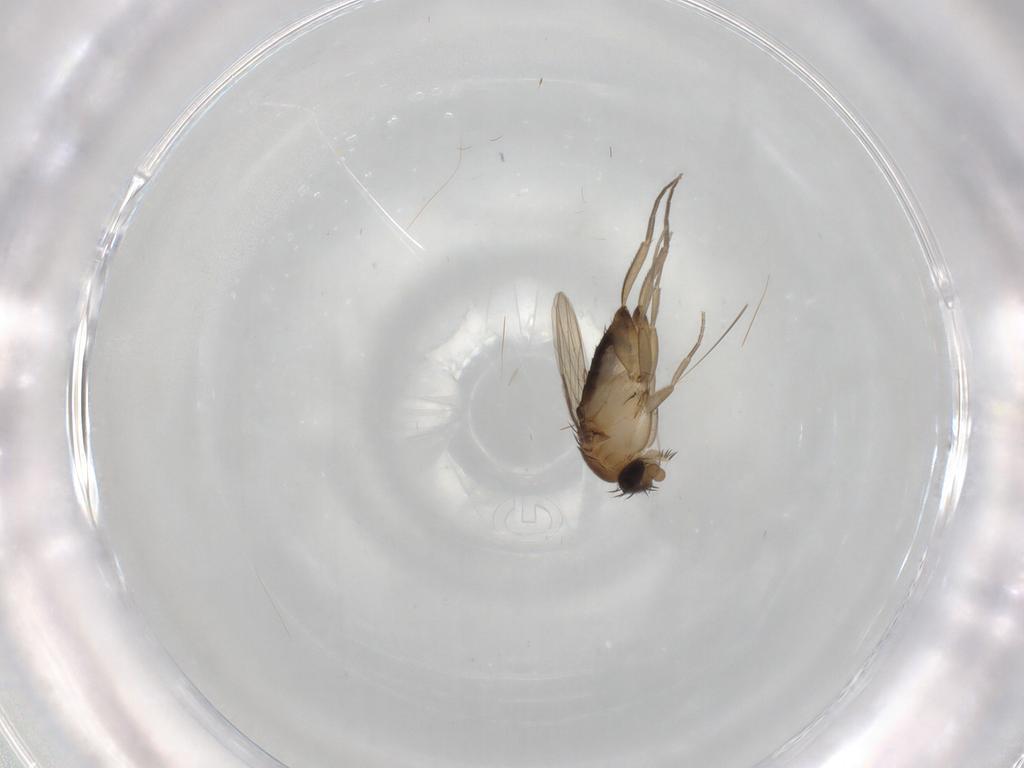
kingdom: Animalia
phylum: Arthropoda
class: Insecta
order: Diptera
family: Phoridae
